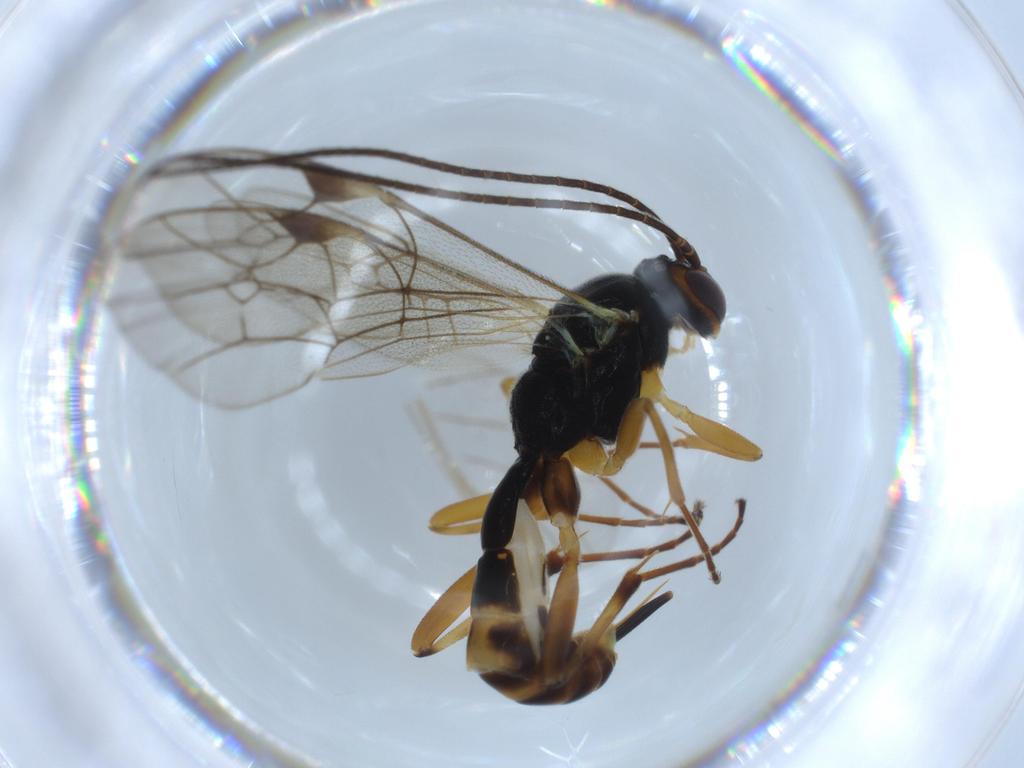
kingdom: Animalia
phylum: Arthropoda
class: Insecta
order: Hymenoptera
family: Ichneumonidae
